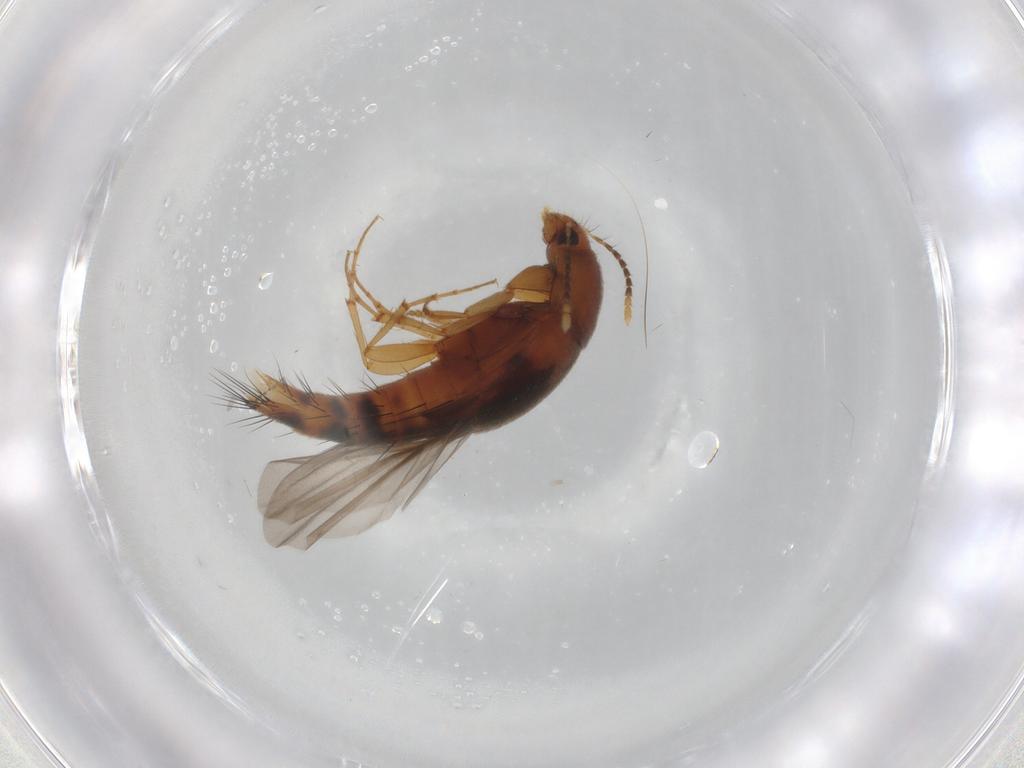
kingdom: Animalia
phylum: Arthropoda
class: Insecta
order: Coleoptera
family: Staphylinidae
